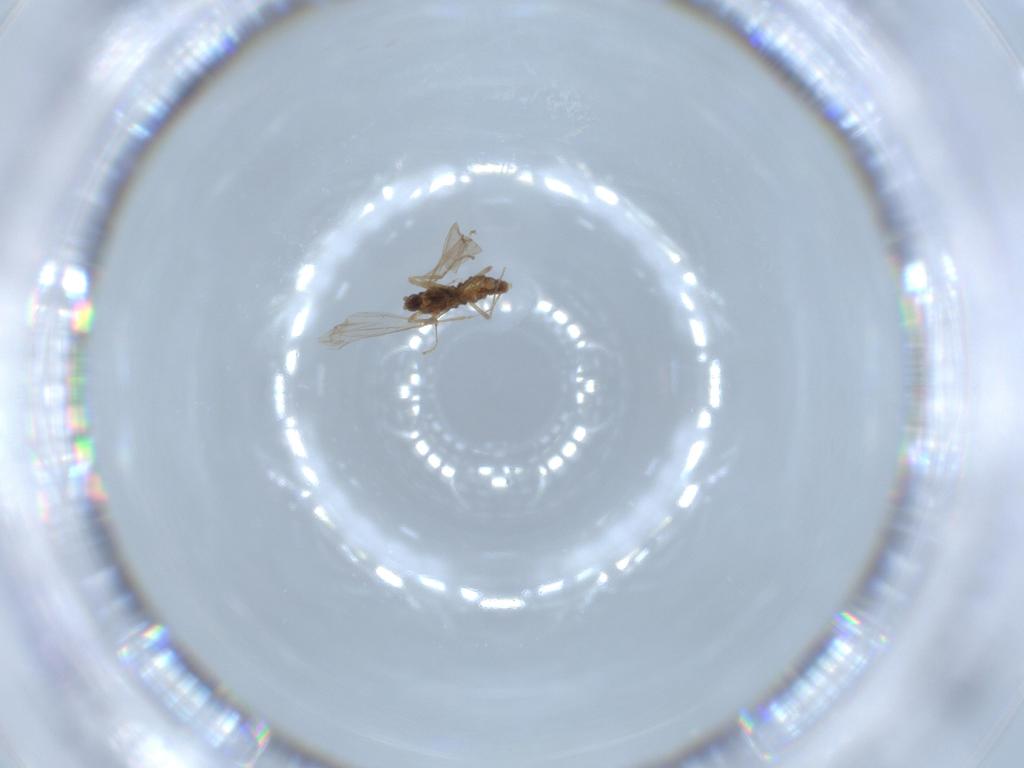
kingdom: Animalia
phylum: Arthropoda
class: Insecta
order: Diptera
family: Cecidomyiidae
